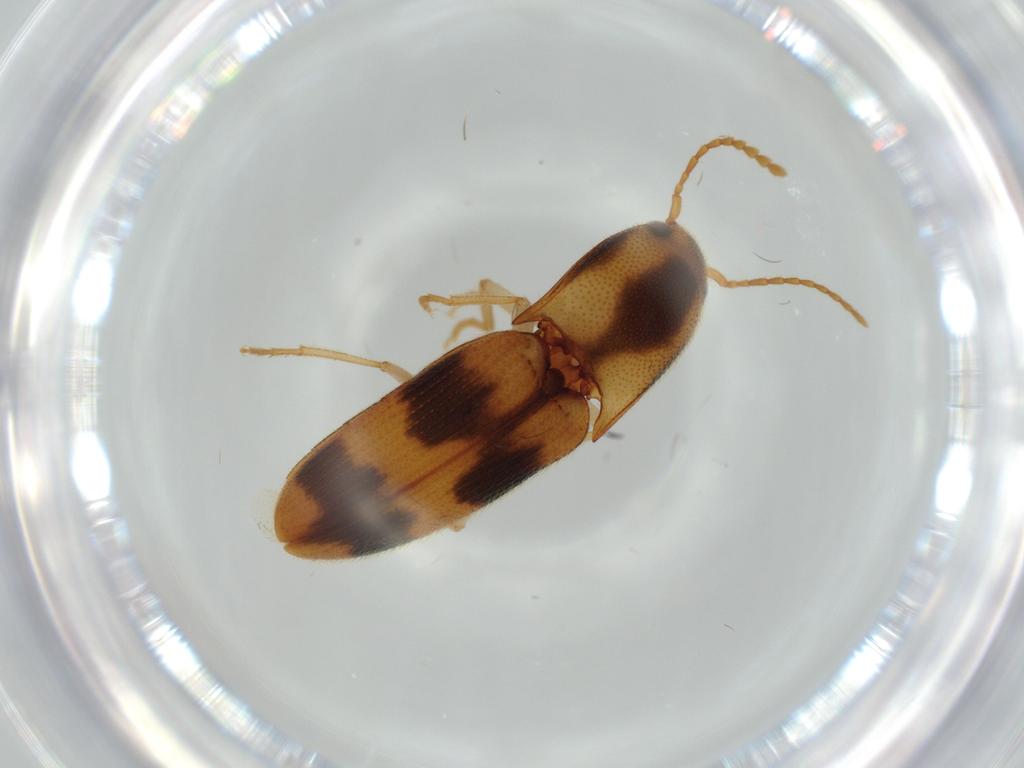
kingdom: Animalia
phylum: Arthropoda
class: Insecta
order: Coleoptera
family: Elateridae
